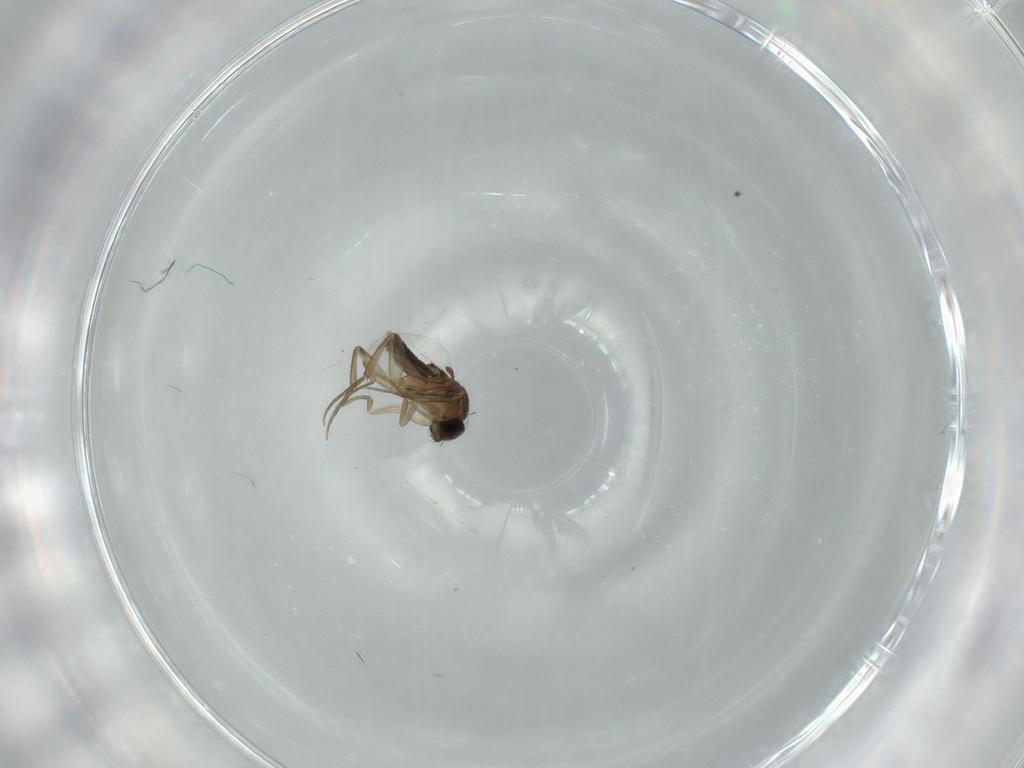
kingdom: Animalia
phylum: Arthropoda
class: Insecta
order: Diptera
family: Phoridae
